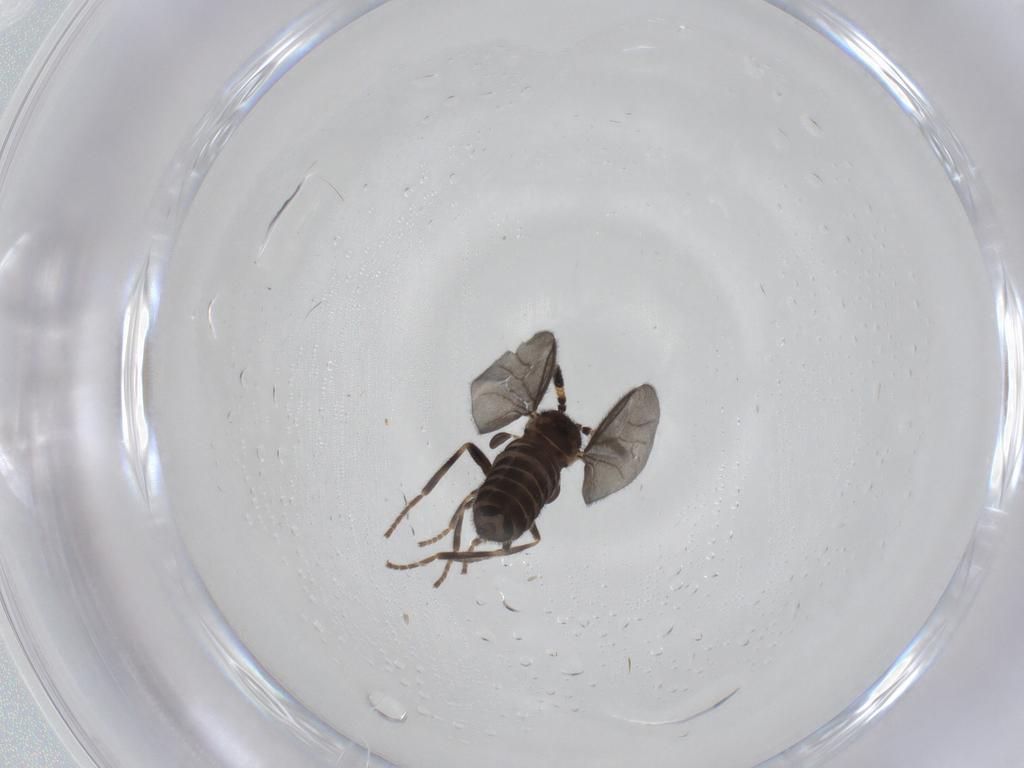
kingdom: Animalia
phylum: Arthropoda
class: Insecta
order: Diptera
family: Scatopsidae
